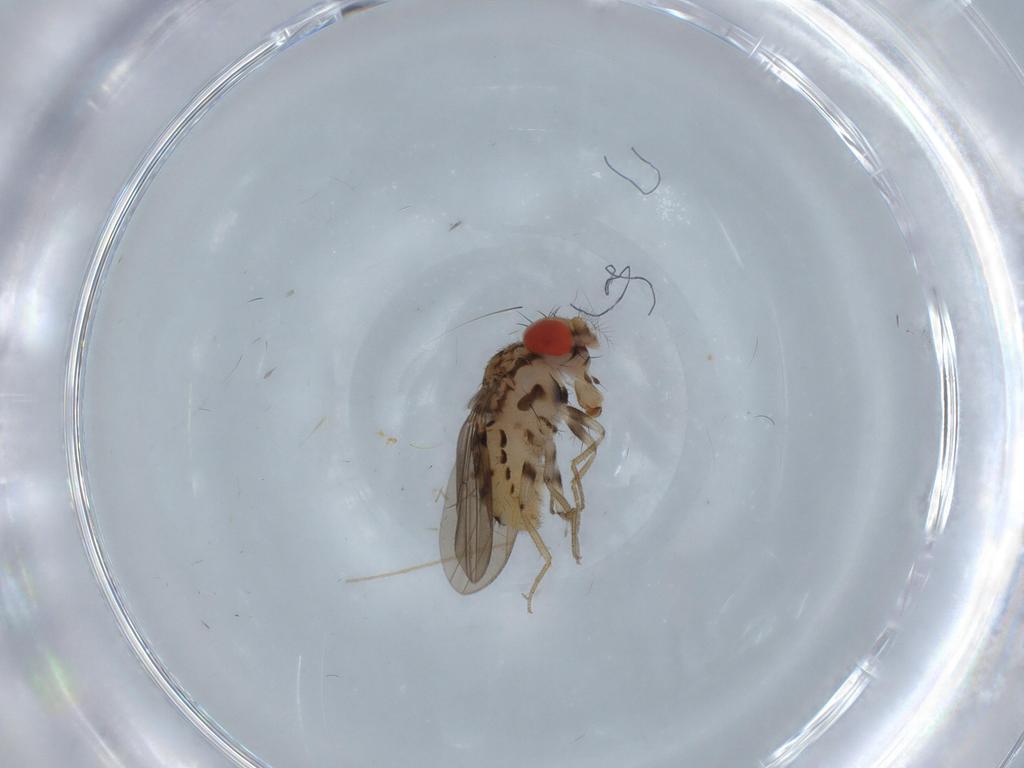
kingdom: Animalia
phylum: Arthropoda
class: Insecta
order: Diptera
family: Drosophilidae
